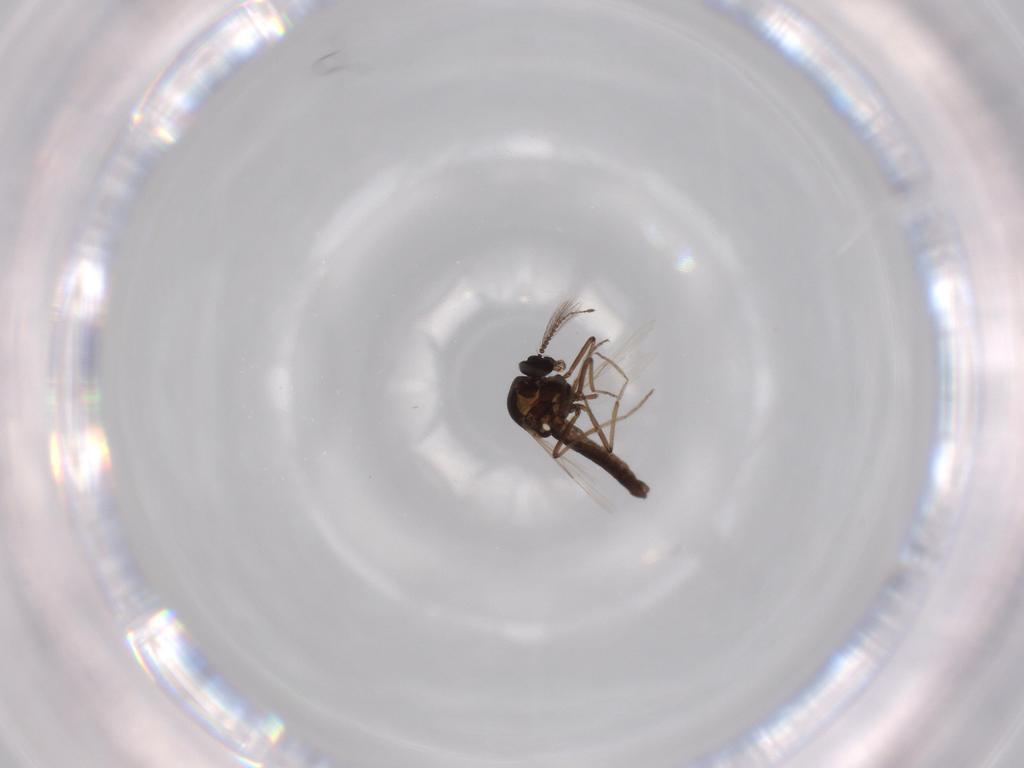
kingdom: Animalia
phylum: Arthropoda
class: Insecta
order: Diptera
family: Ceratopogonidae
